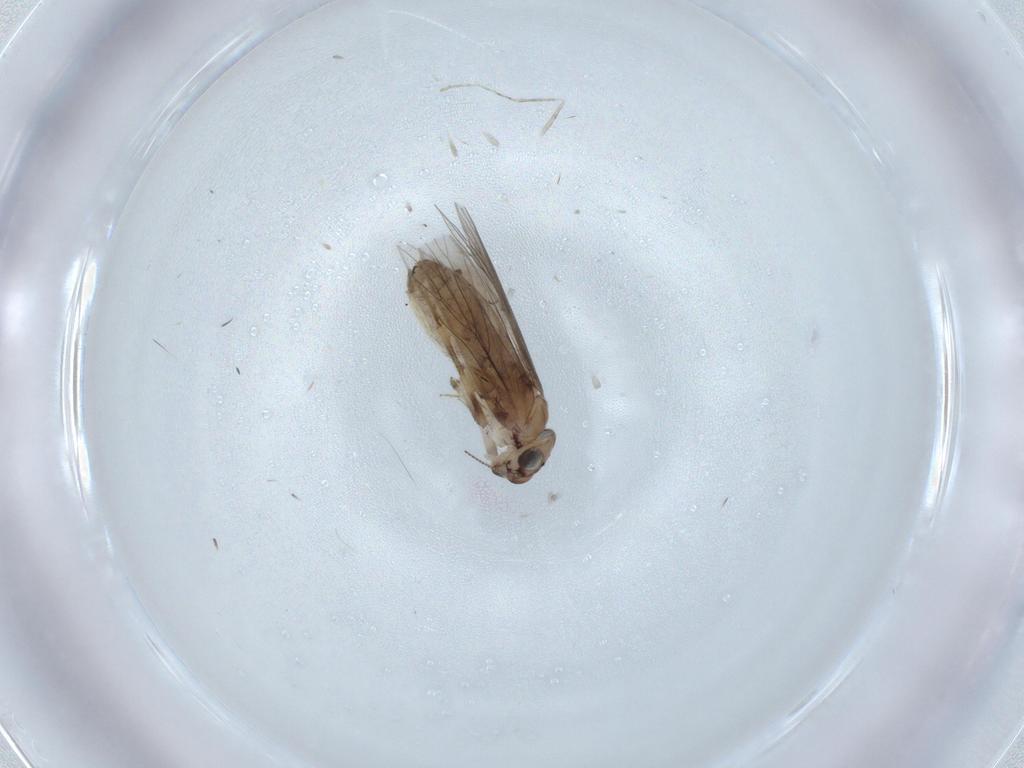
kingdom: Animalia
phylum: Arthropoda
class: Insecta
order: Psocodea
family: Lepidopsocidae
